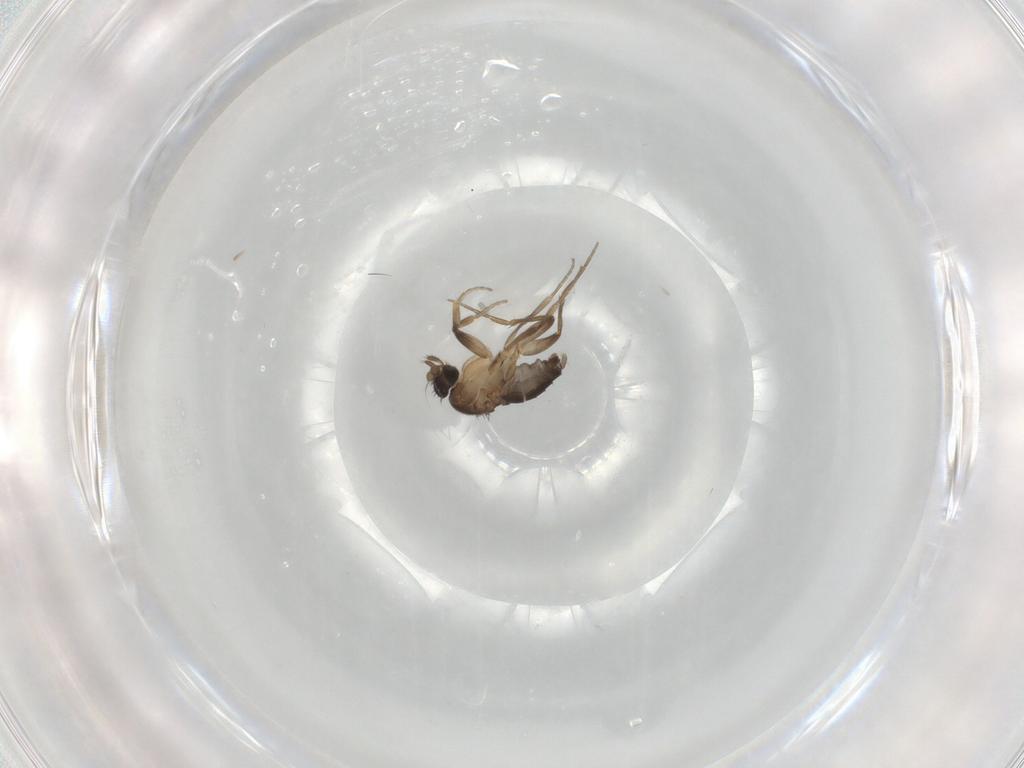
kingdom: Animalia
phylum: Arthropoda
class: Insecta
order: Diptera
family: Phoridae
